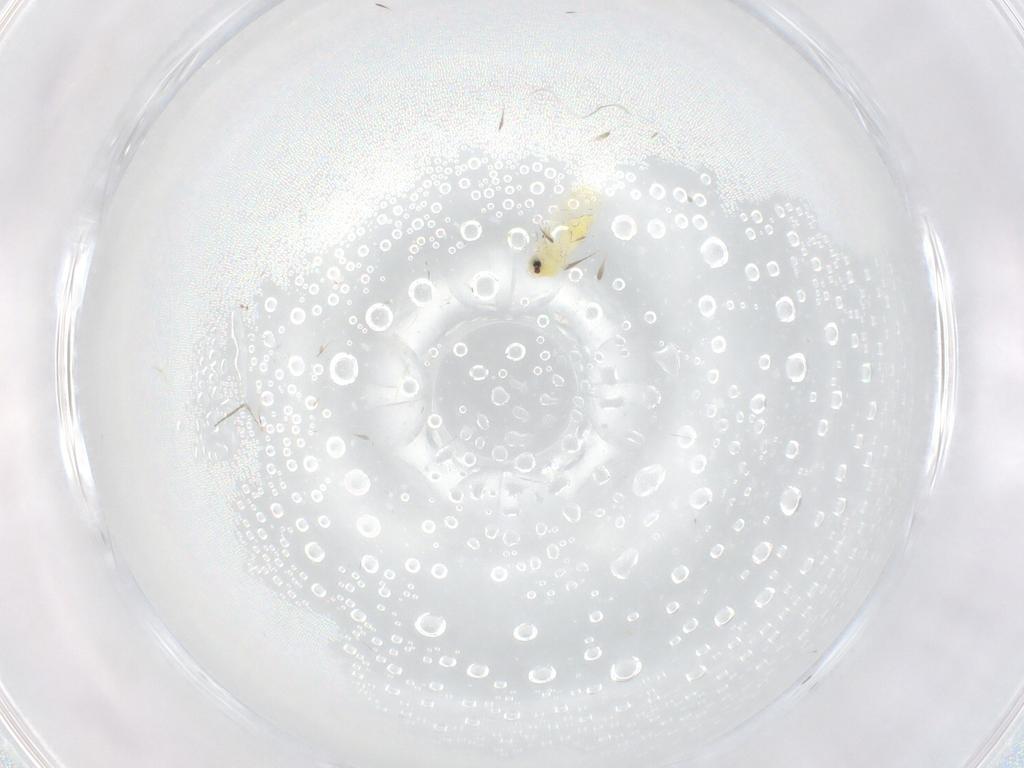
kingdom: Animalia
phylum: Arthropoda
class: Insecta
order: Hemiptera
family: Aleyrodidae
